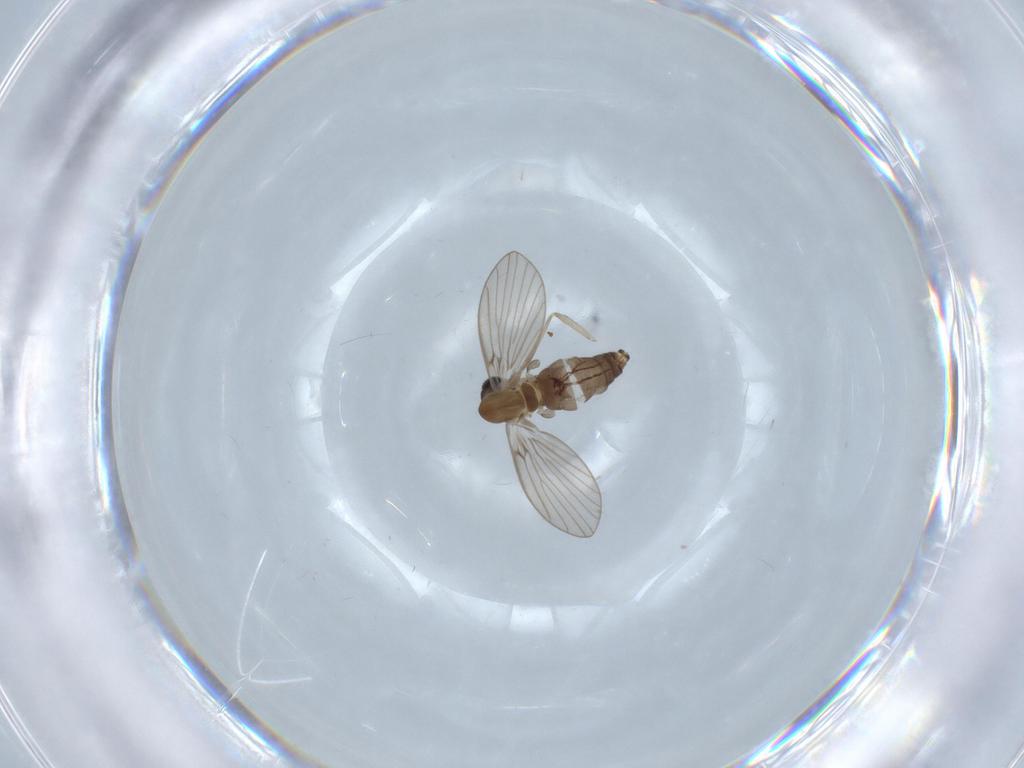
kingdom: Animalia
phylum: Arthropoda
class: Insecta
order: Diptera
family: Psychodidae
